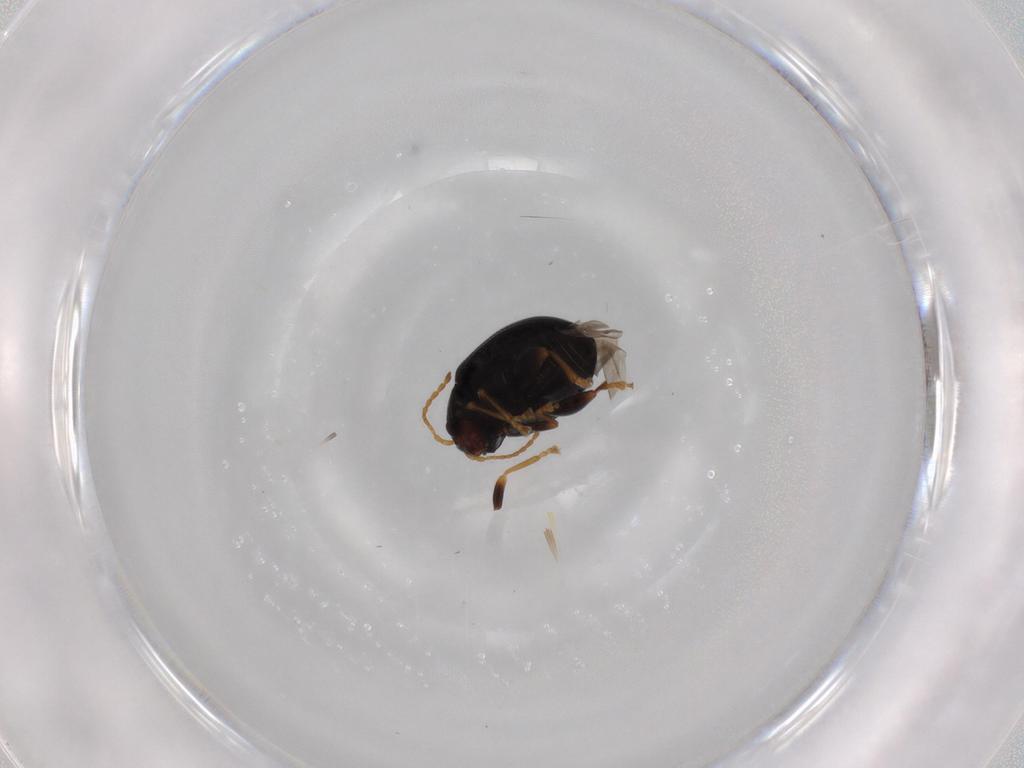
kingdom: Animalia
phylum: Arthropoda
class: Insecta
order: Coleoptera
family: Chrysomelidae
